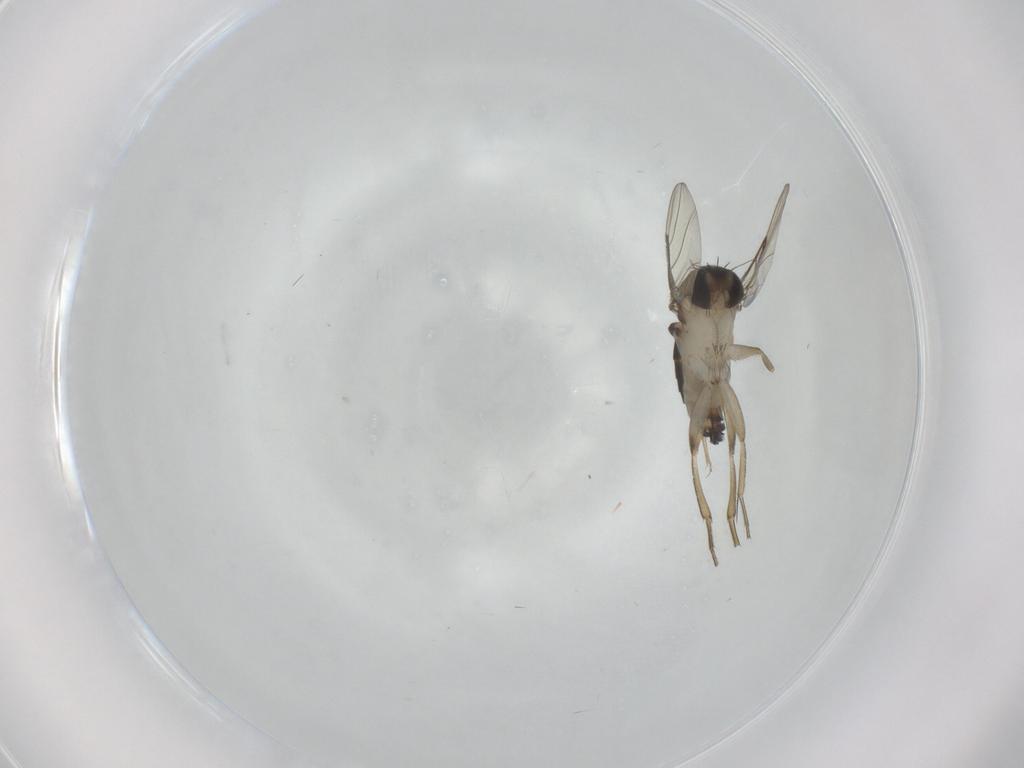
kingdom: Animalia
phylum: Arthropoda
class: Insecta
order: Diptera
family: Phoridae
